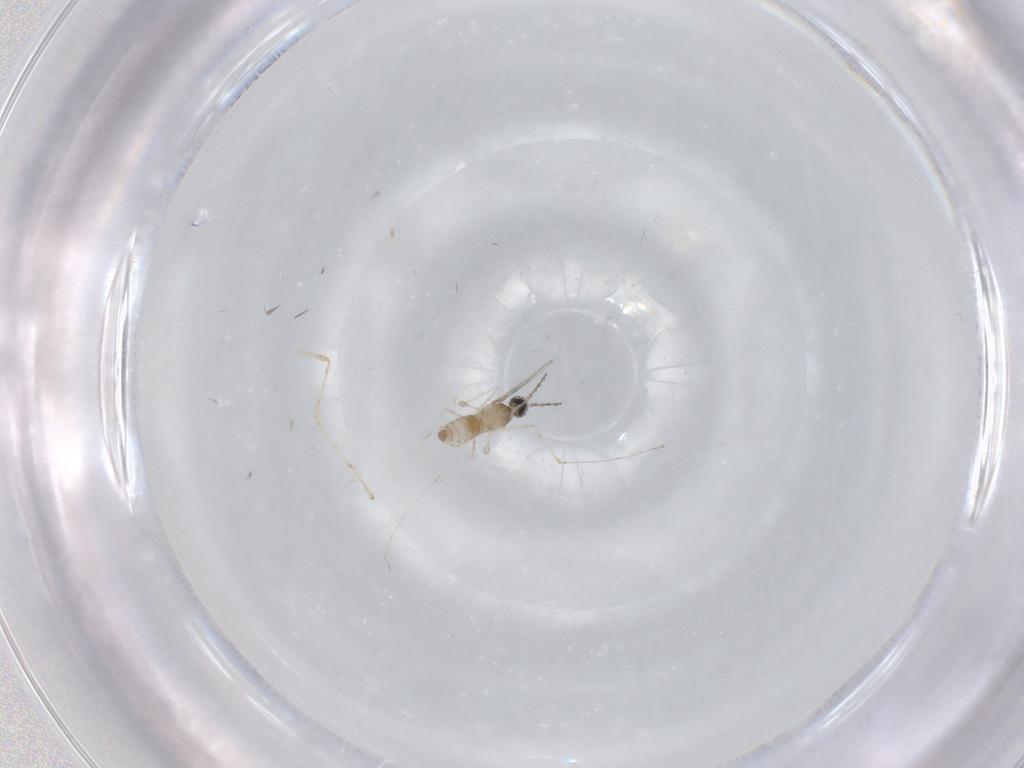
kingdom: Animalia
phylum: Arthropoda
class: Insecta
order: Diptera
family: Cecidomyiidae
